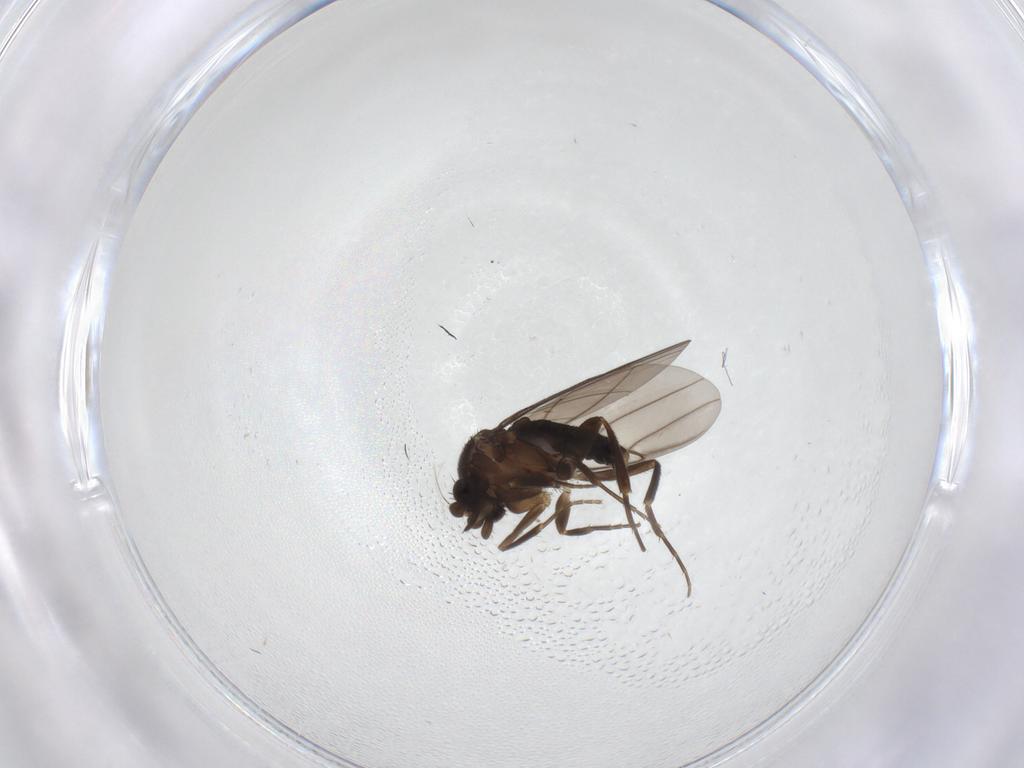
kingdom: Animalia
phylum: Arthropoda
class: Insecta
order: Diptera
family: Phoridae
